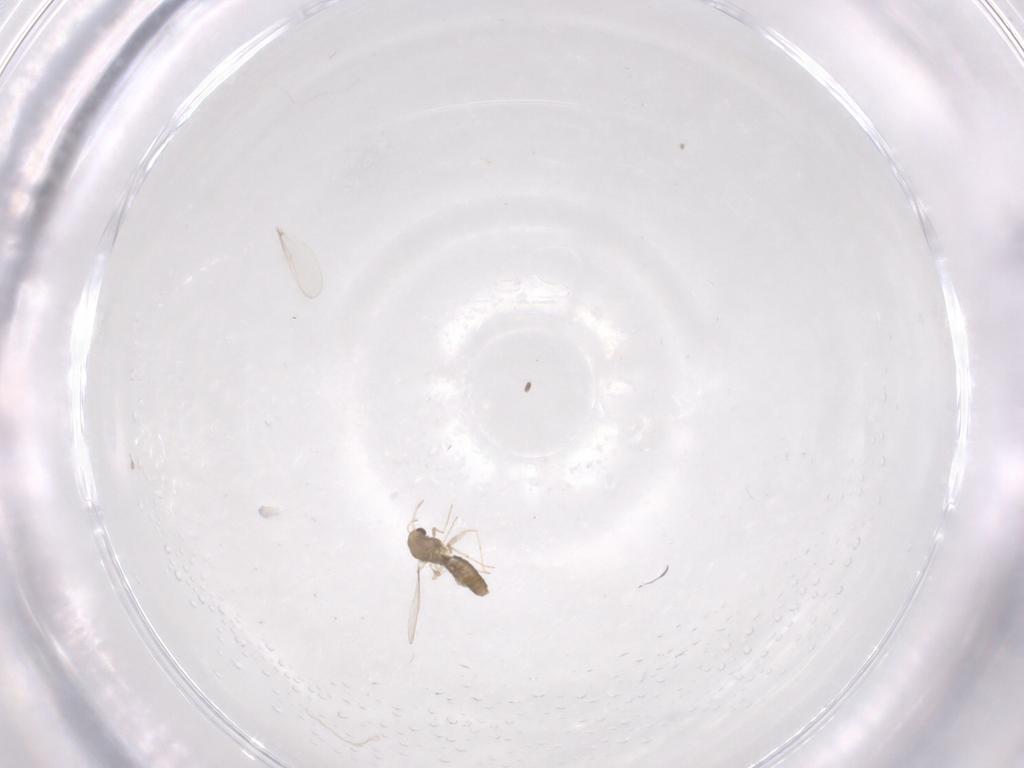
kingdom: Animalia
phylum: Arthropoda
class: Insecta
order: Diptera
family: Chironomidae
